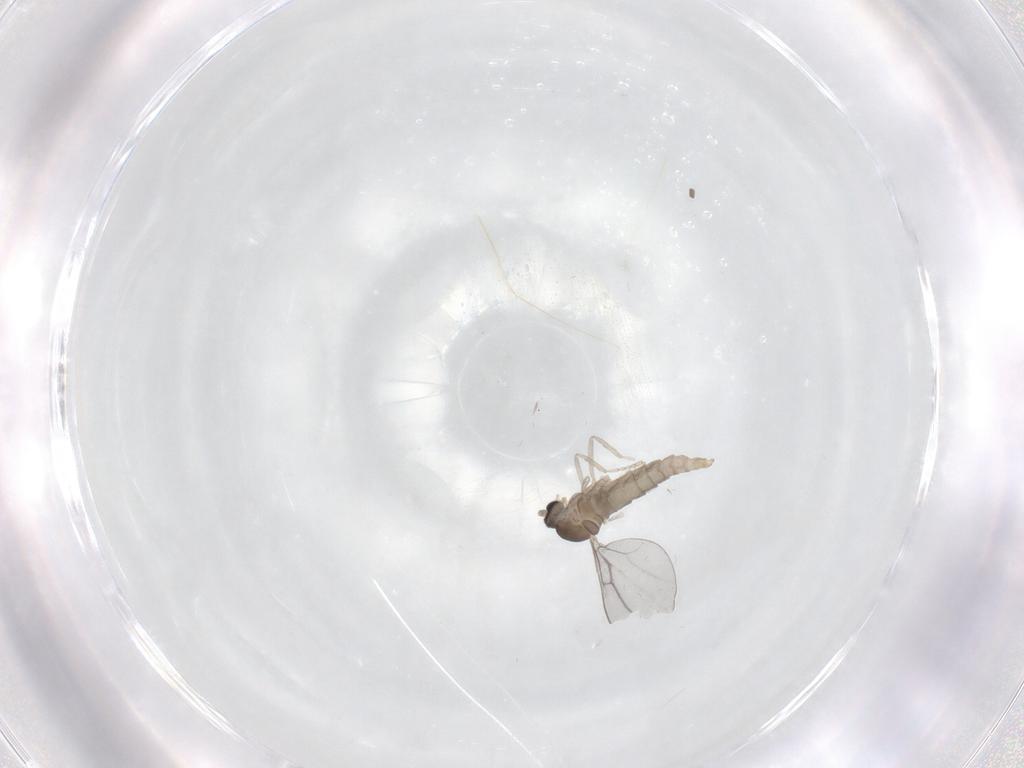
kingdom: Animalia
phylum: Arthropoda
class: Insecta
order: Diptera
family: Cecidomyiidae
